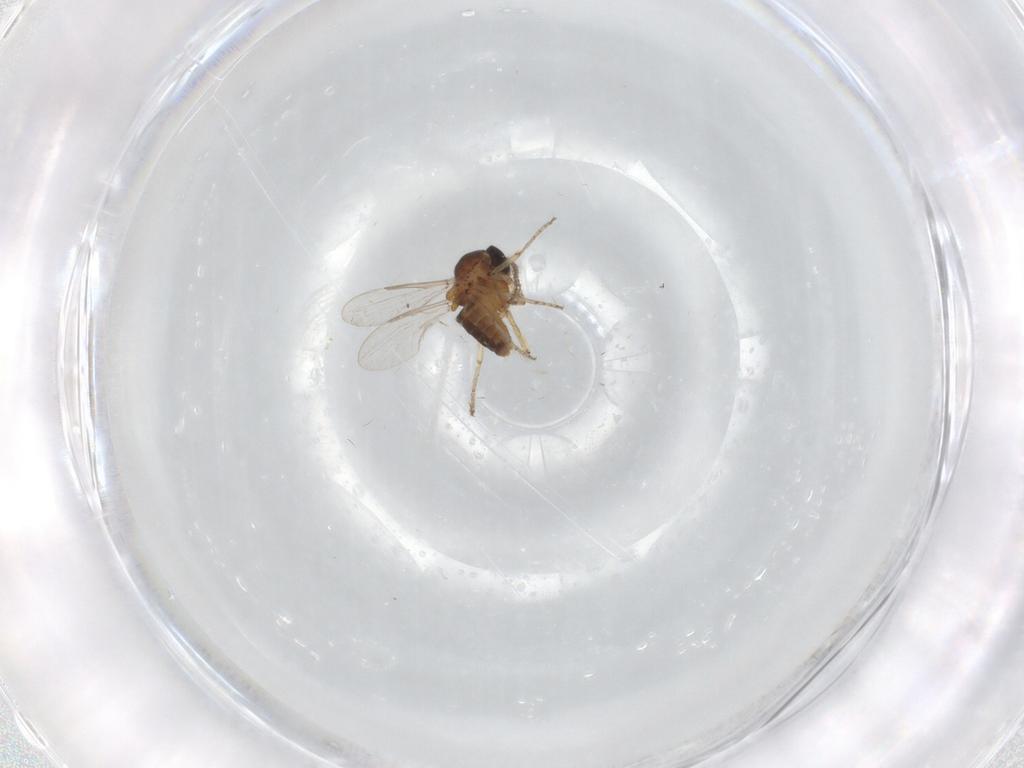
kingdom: Animalia
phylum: Arthropoda
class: Insecta
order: Diptera
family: Ceratopogonidae
